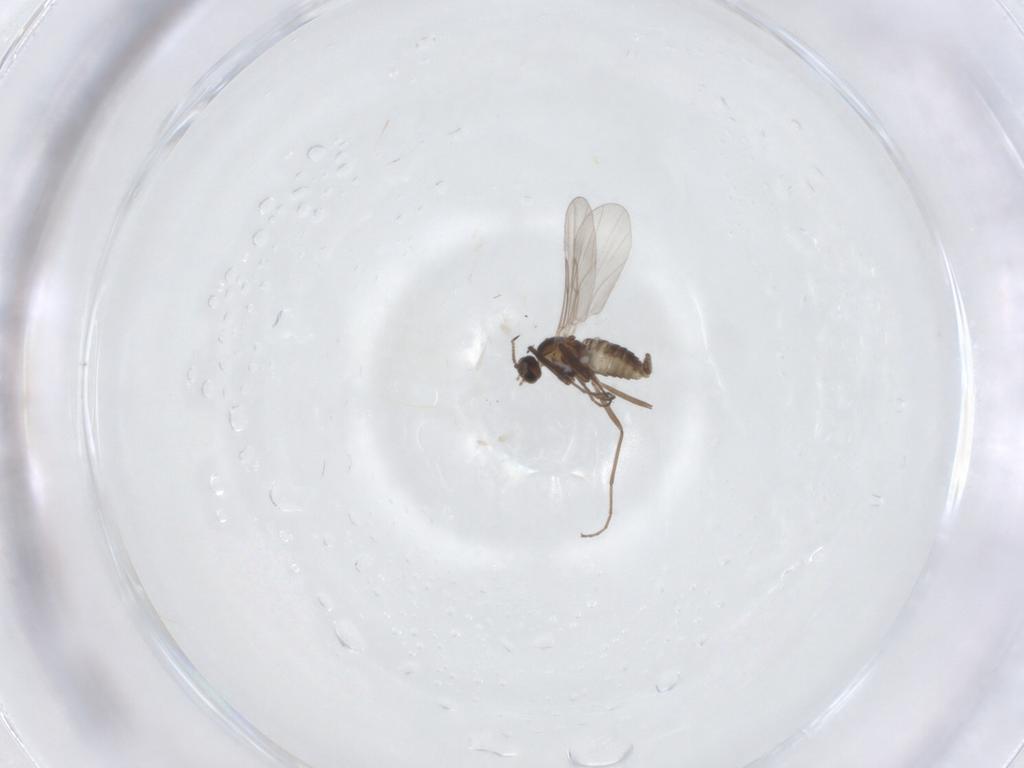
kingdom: Animalia
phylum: Arthropoda
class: Insecta
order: Diptera
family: Cecidomyiidae
